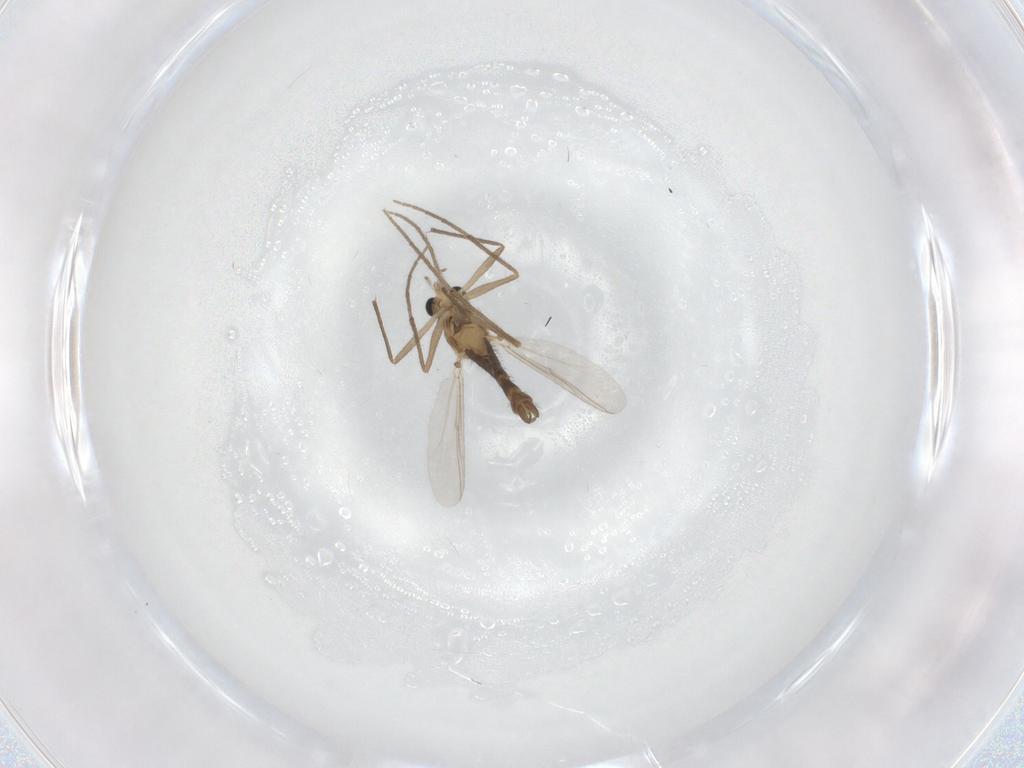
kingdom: Animalia
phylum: Arthropoda
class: Insecta
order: Diptera
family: Chironomidae
